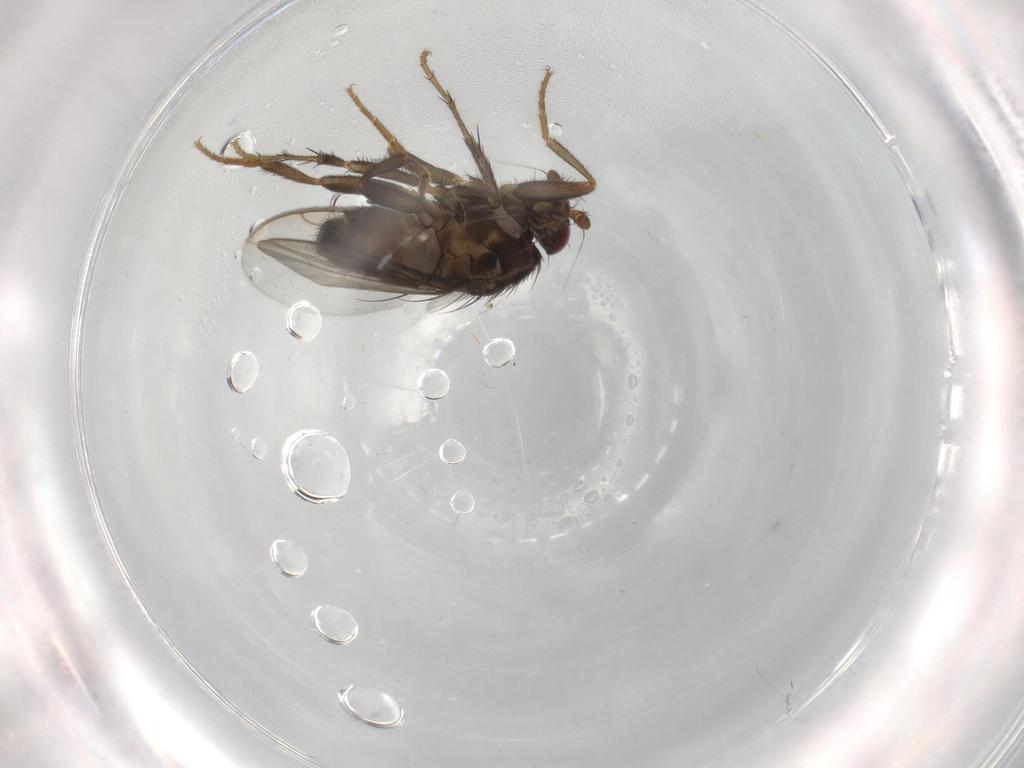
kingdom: Animalia
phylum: Arthropoda
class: Insecta
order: Diptera
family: Sphaeroceridae
